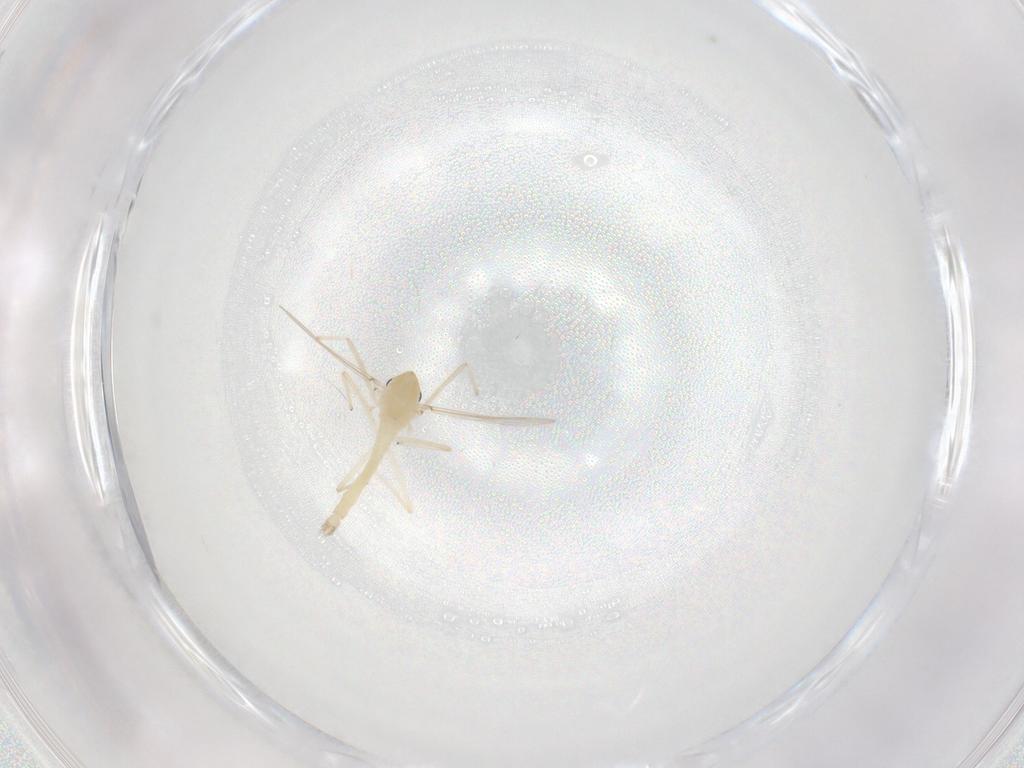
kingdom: Animalia
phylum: Arthropoda
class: Insecta
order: Diptera
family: Chironomidae
